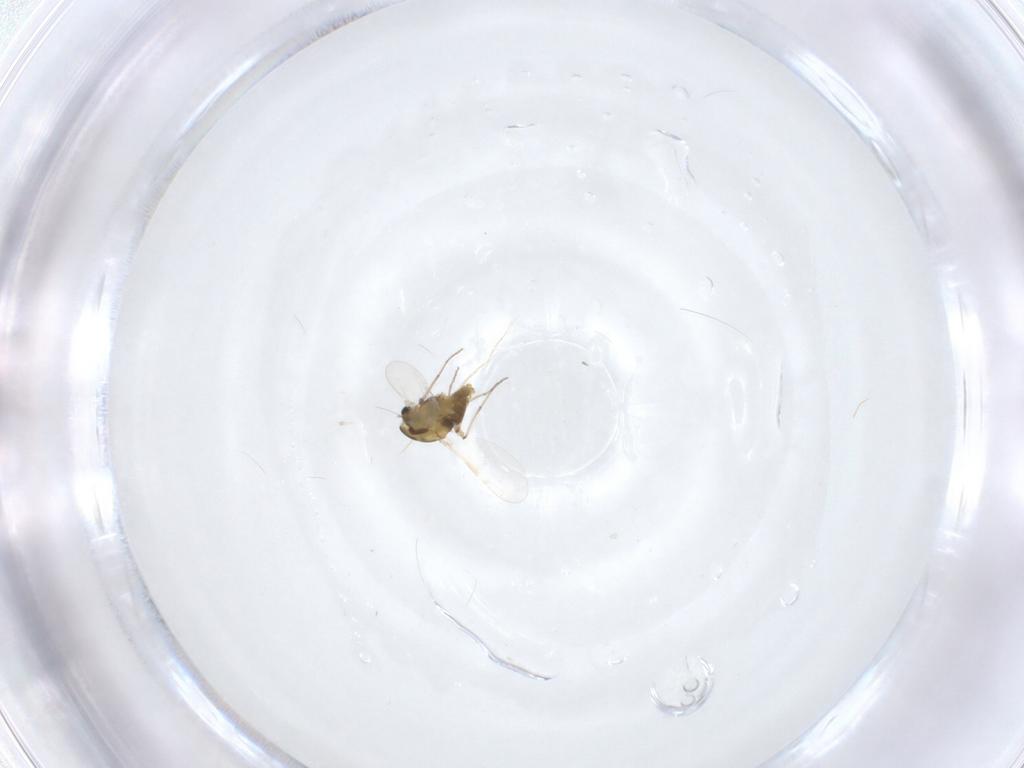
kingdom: Animalia
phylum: Arthropoda
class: Insecta
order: Diptera
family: Chironomidae
